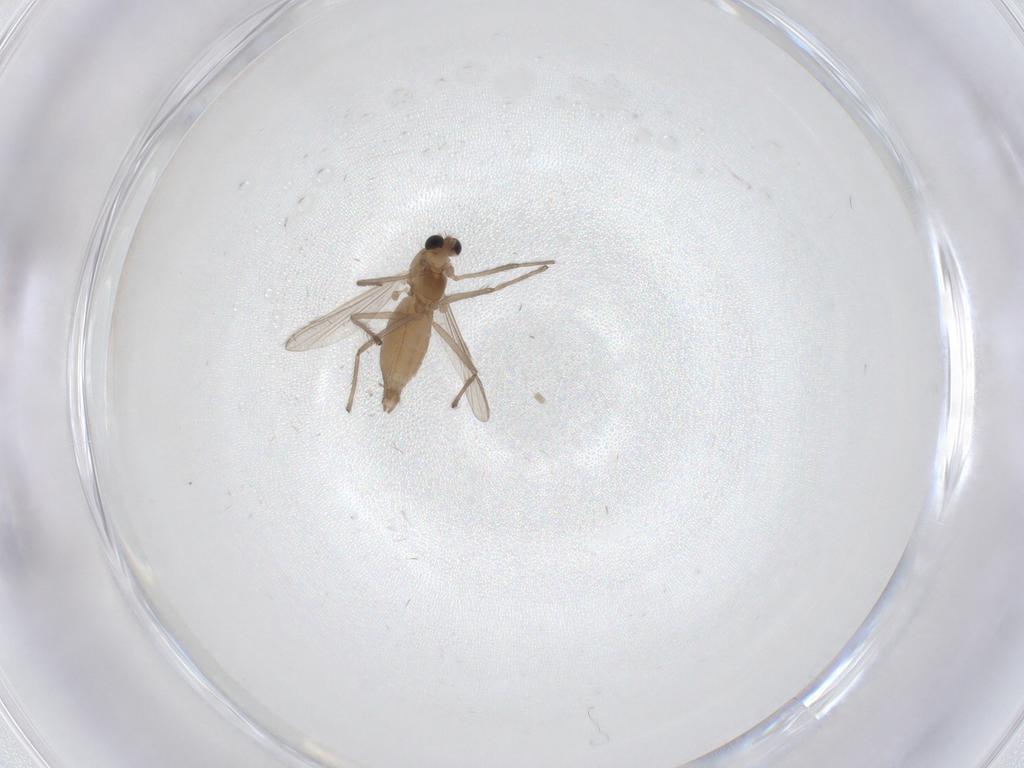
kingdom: Animalia
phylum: Arthropoda
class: Insecta
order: Diptera
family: Chironomidae
